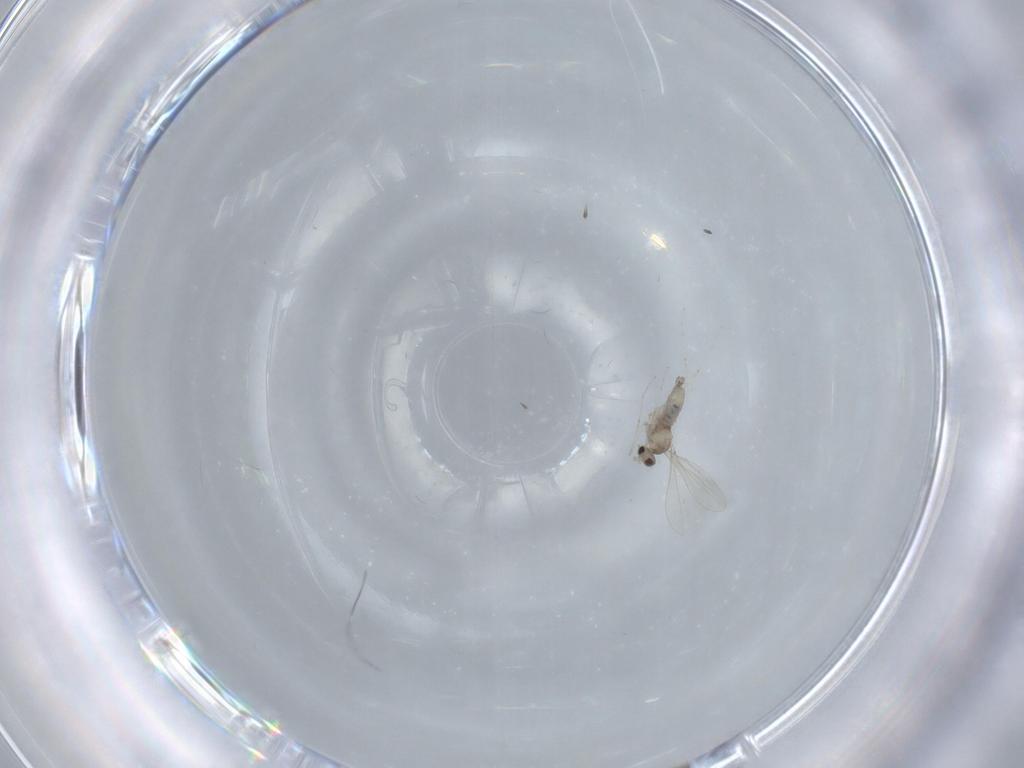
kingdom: Animalia
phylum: Arthropoda
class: Insecta
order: Diptera
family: Cecidomyiidae
